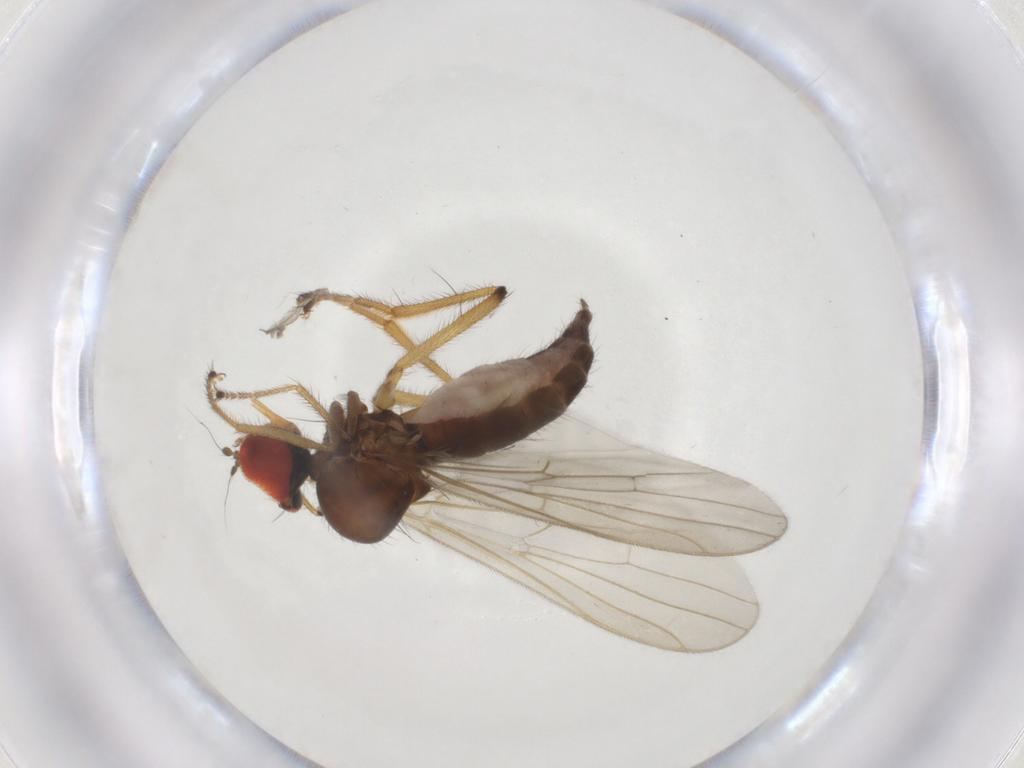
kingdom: Animalia
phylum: Arthropoda
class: Insecta
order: Diptera
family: Hybotidae
